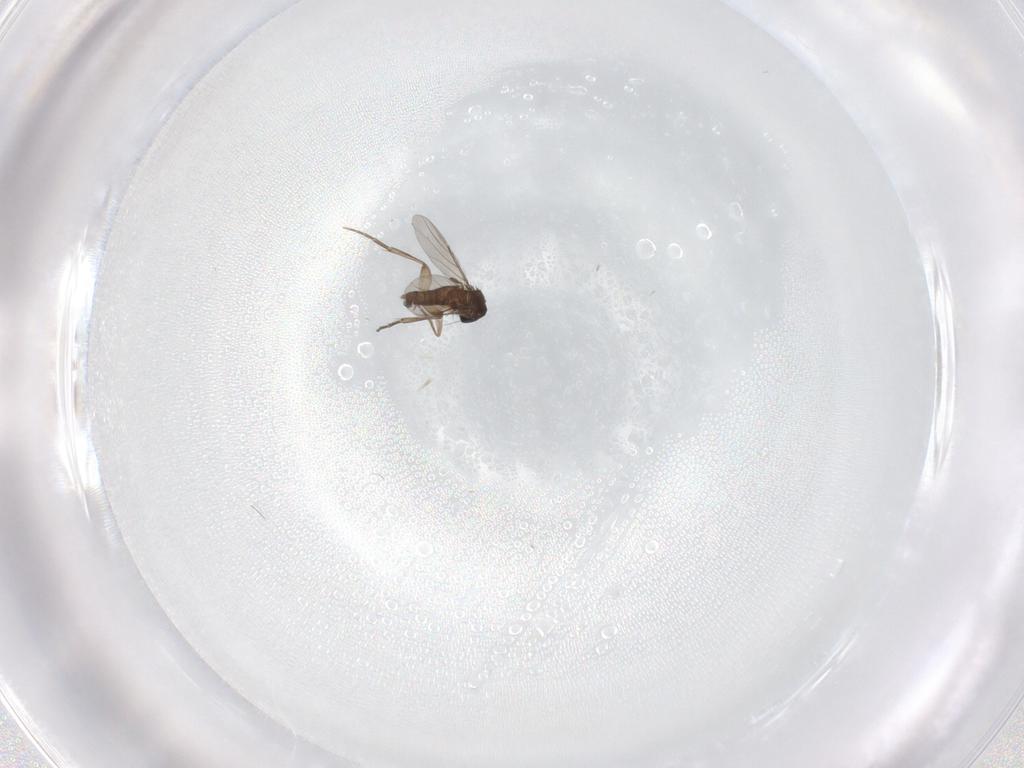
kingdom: Animalia
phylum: Arthropoda
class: Insecta
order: Diptera
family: Phoridae
